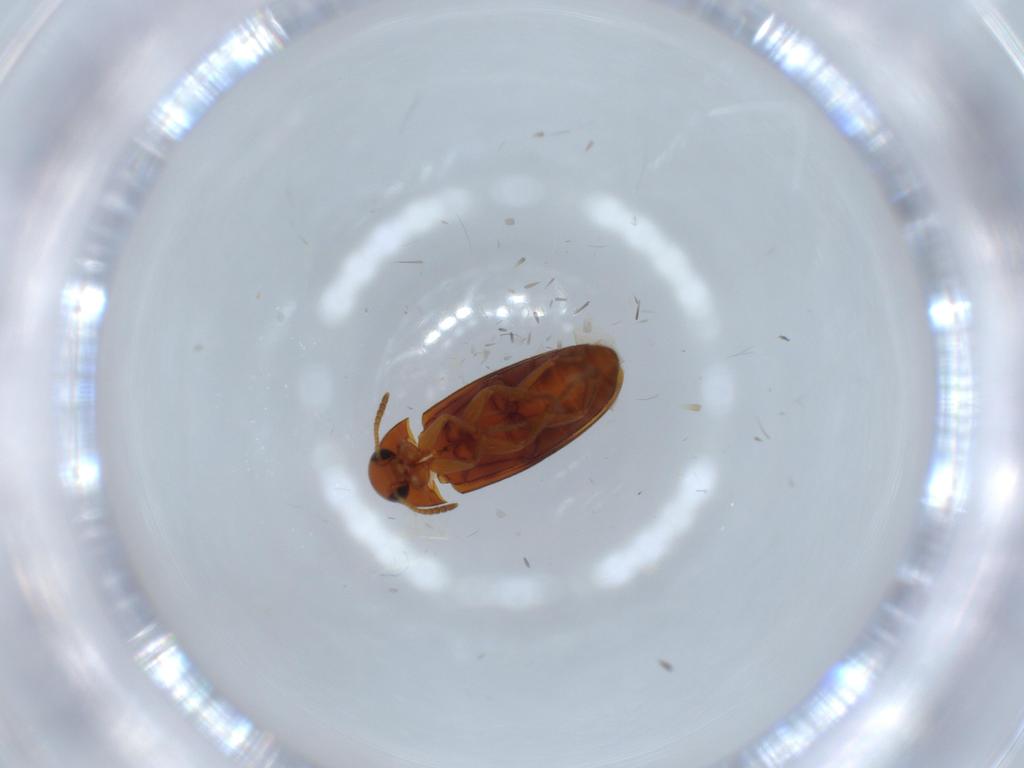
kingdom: Animalia
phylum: Arthropoda
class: Insecta
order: Coleoptera
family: Scraptiidae
